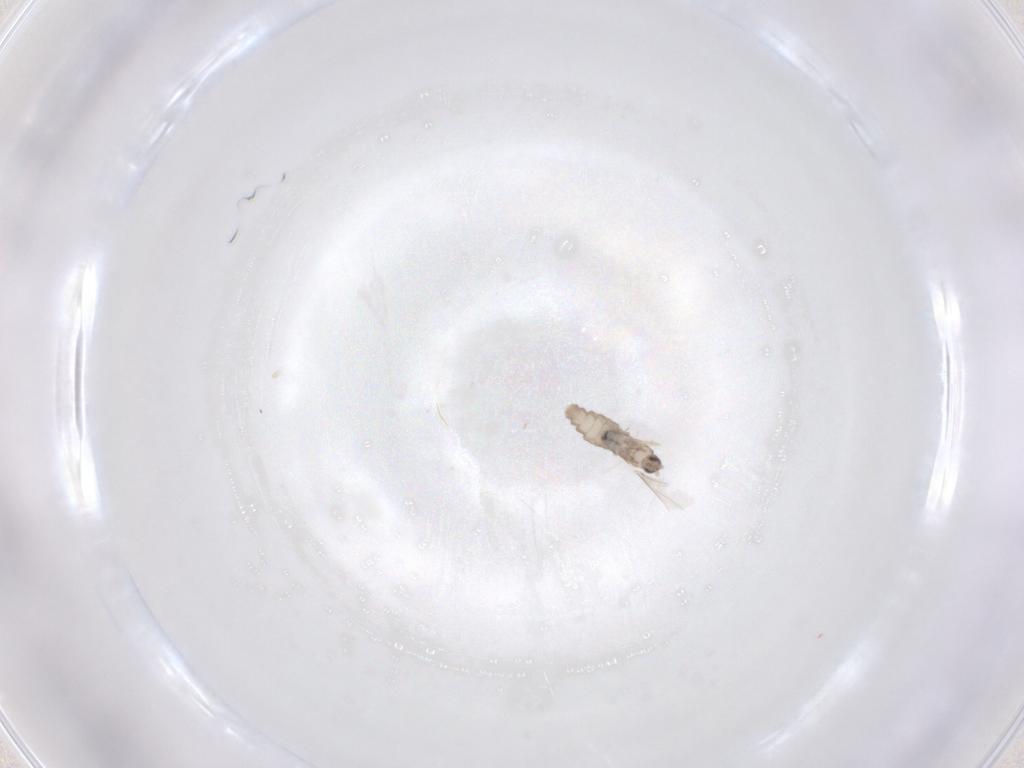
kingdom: Animalia
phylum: Arthropoda
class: Insecta
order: Diptera
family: Cecidomyiidae
